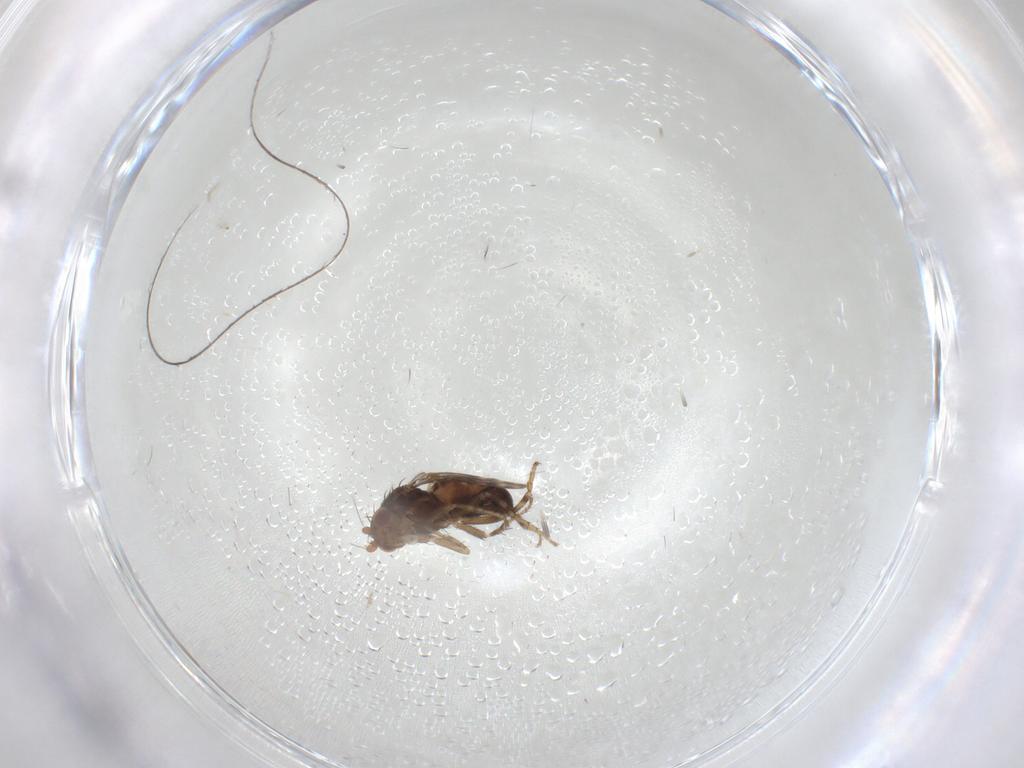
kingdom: Animalia
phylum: Arthropoda
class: Insecta
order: Diptera
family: Sphaeroceridae
